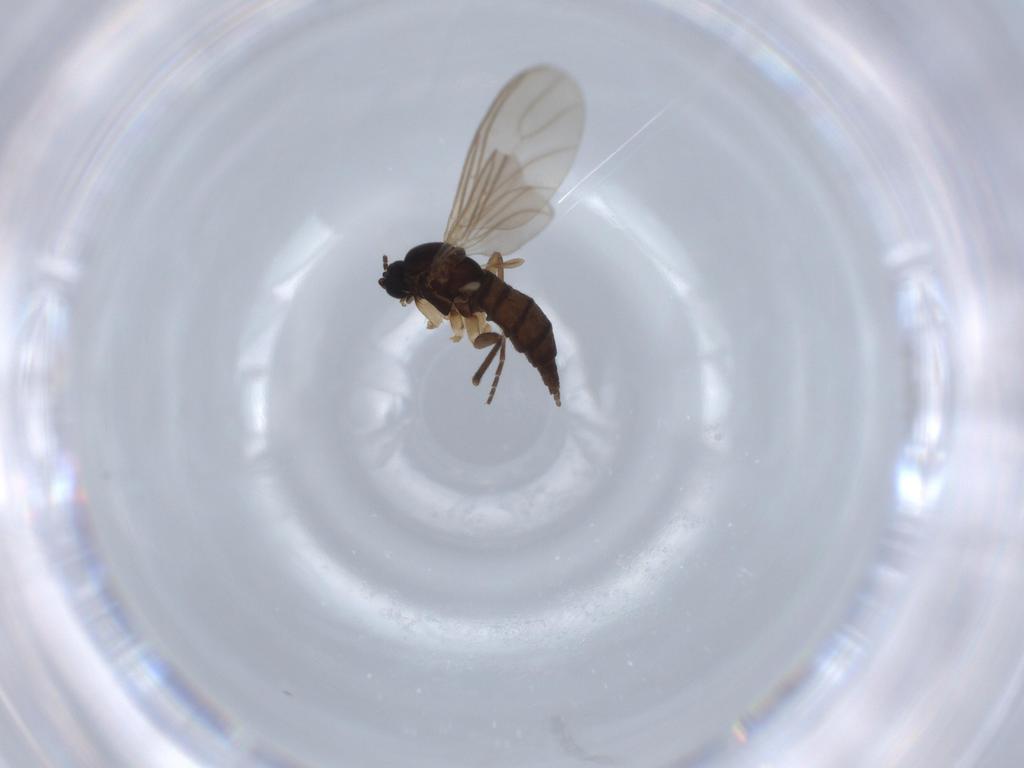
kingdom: Animalia
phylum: Arthropoda
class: Insecta
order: Diptera
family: Sciaridae
